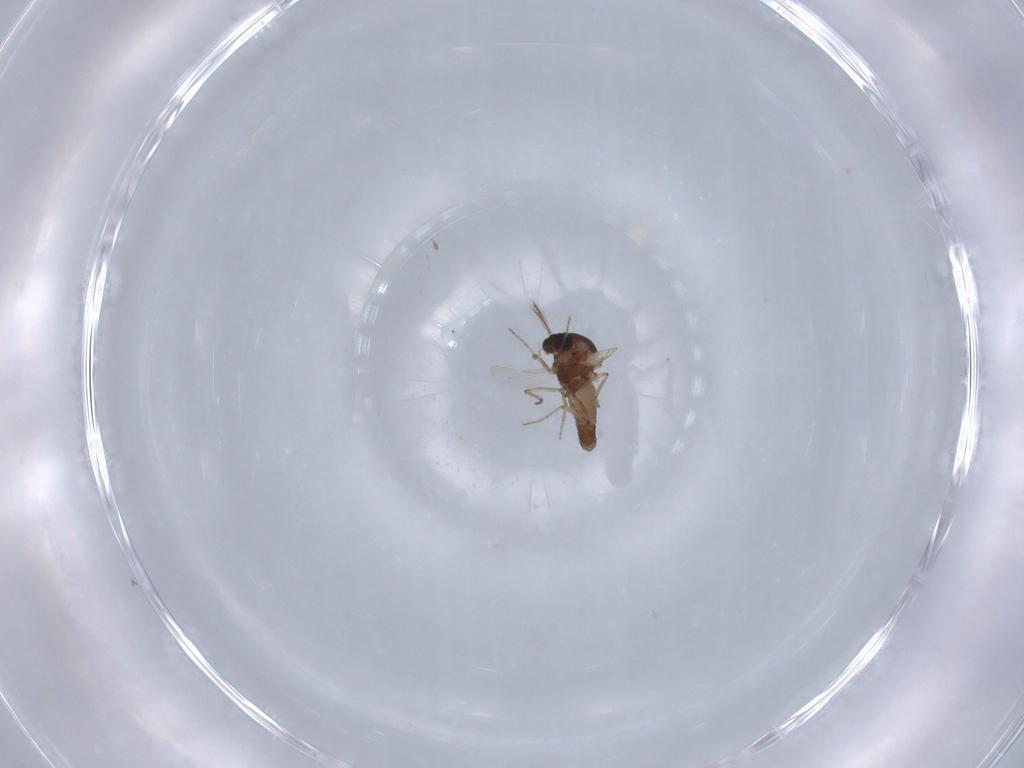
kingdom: Animalia
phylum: Arthropoda
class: Insecta
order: Diptera
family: Ceratopogonidae
